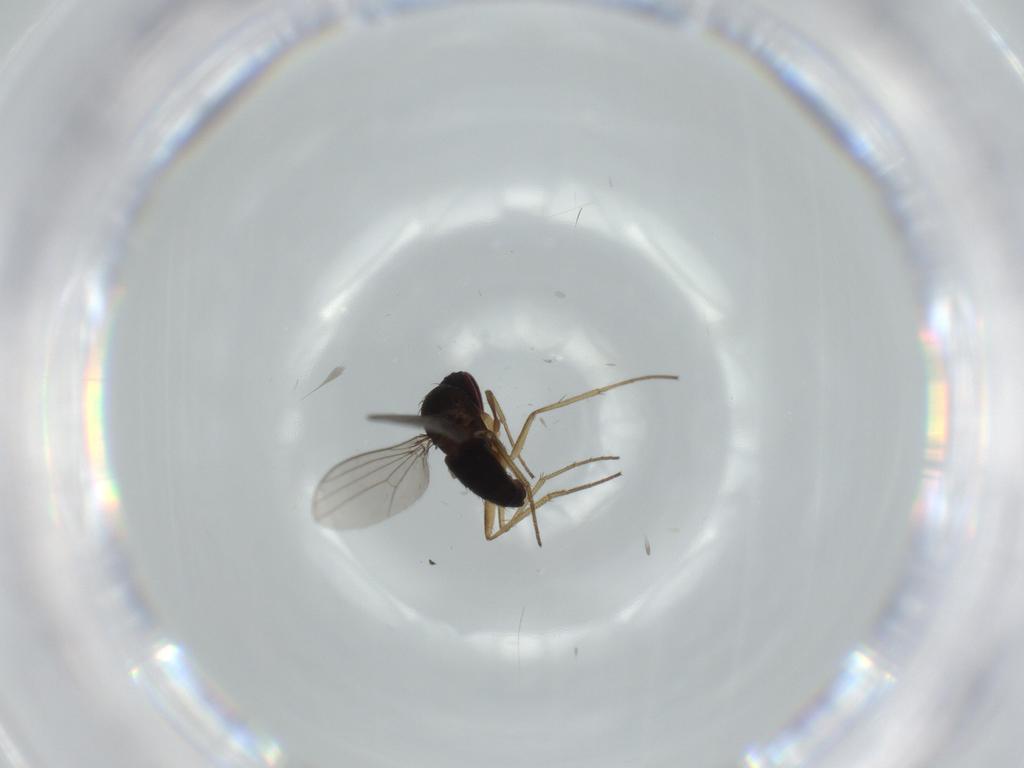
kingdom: Animalia
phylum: Arthropoda
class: Insecta
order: Diptera
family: Dolichopodidae
